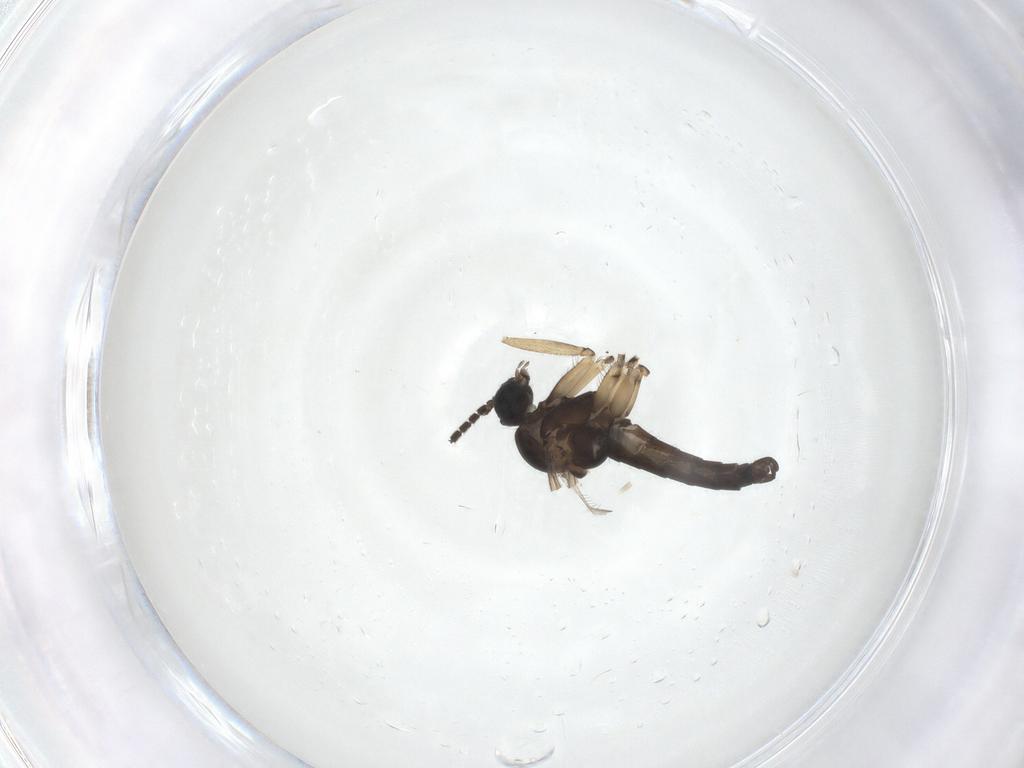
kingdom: Animalia
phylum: Arthropoda
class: Insecta
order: Diptera
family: Sciaridae
